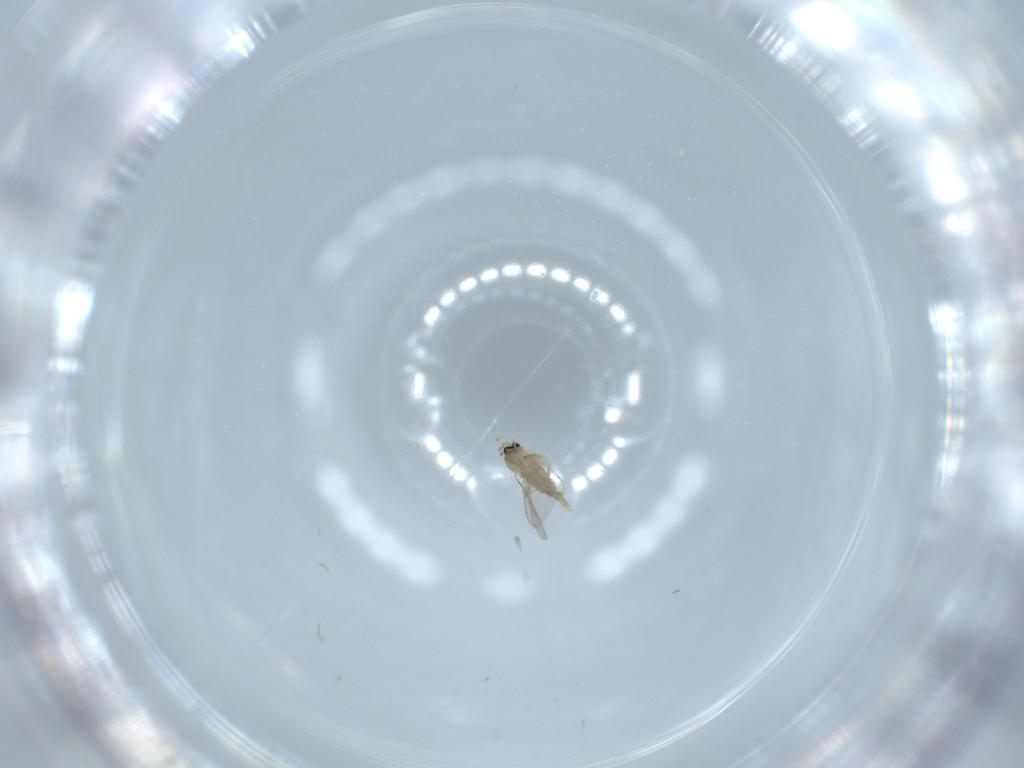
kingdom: Animalia
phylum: Arthropoda
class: Insecta
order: Diptera
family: Cecidomyiidae
